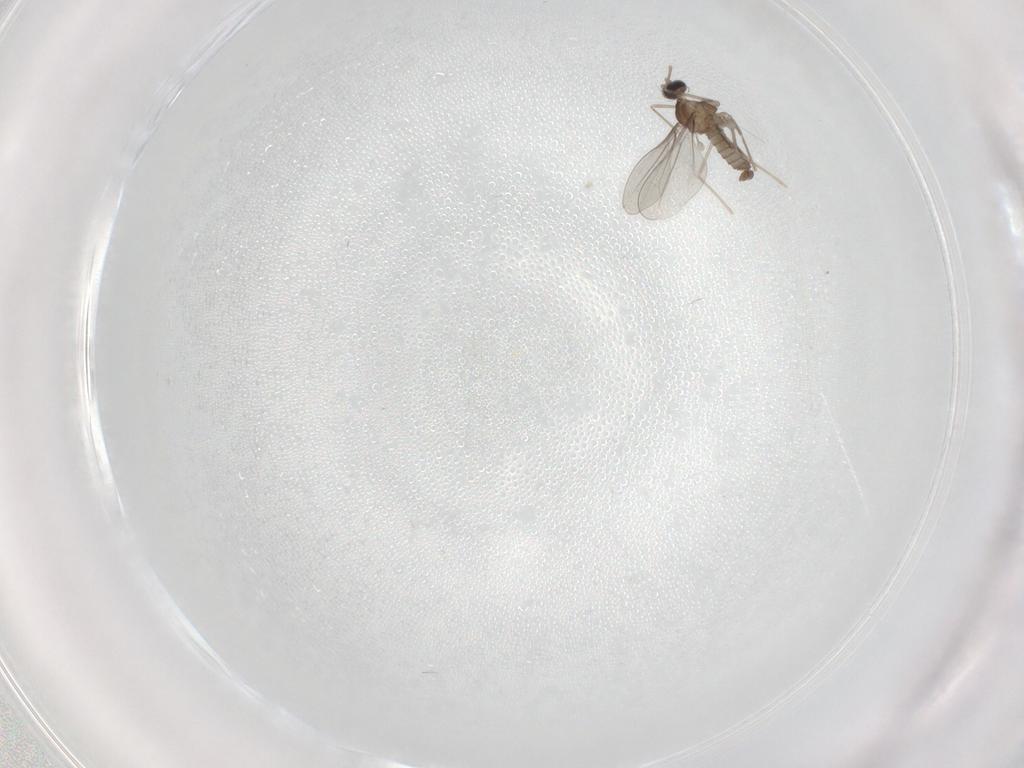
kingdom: Animalia
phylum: Arthropoda
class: Insecta
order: Diptera
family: Cecidomyiidae
